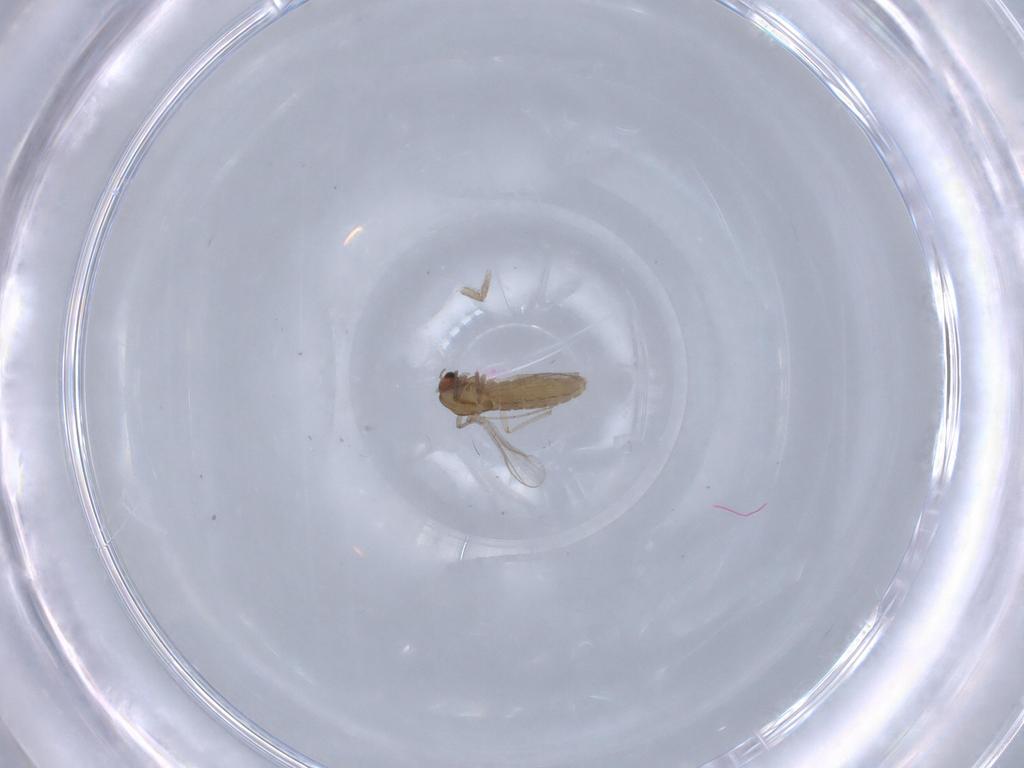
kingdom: Animalia
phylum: Arthropoda
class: Insecta
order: Diptera
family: Chironomidae
